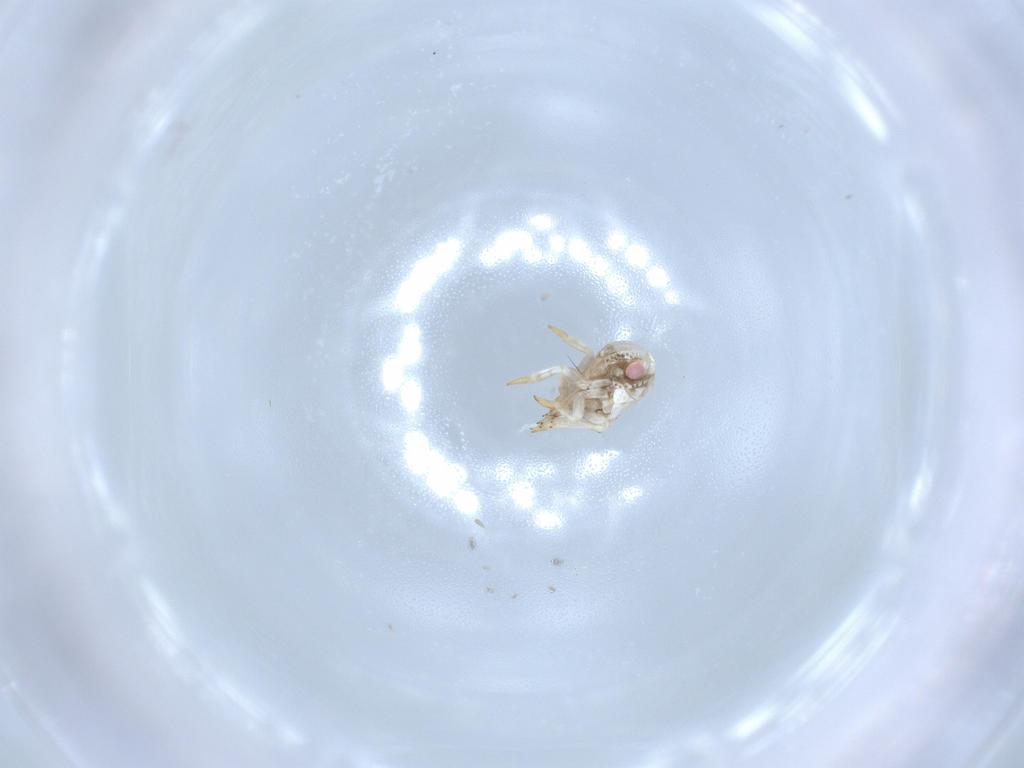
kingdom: Animalia
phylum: Arthropoda
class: Insecta
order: Hemiptera
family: Acanaloniidae
